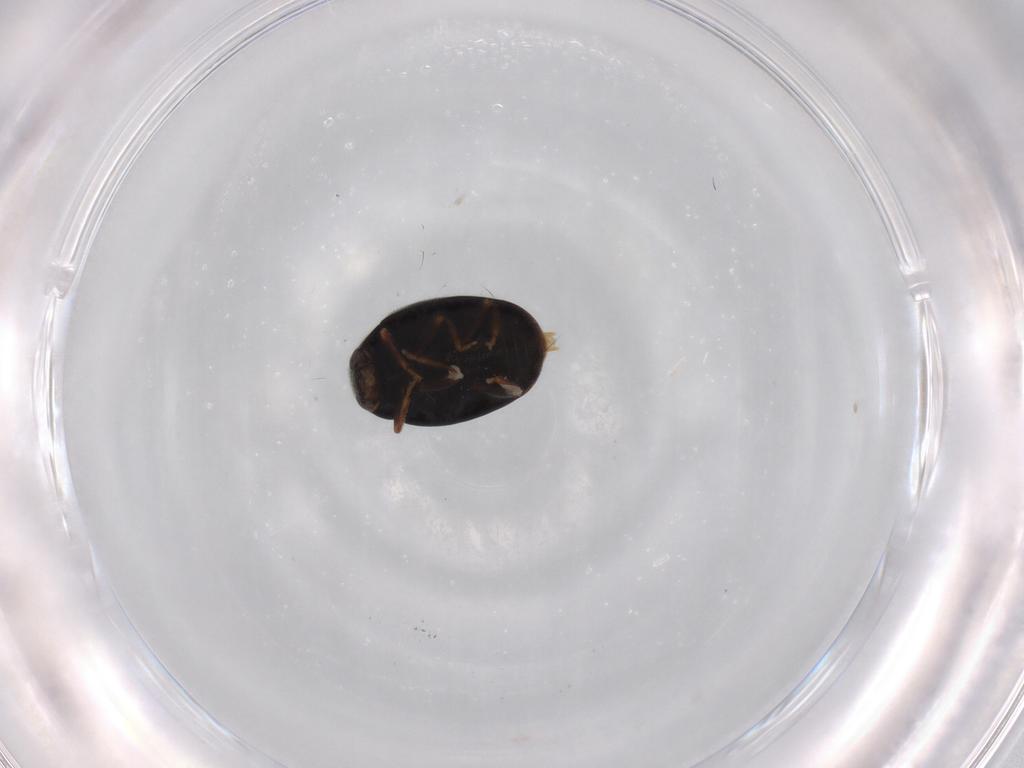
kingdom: Animalia
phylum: Arthropoda
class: Insecta
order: Coleoptera
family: Coccinellidae
